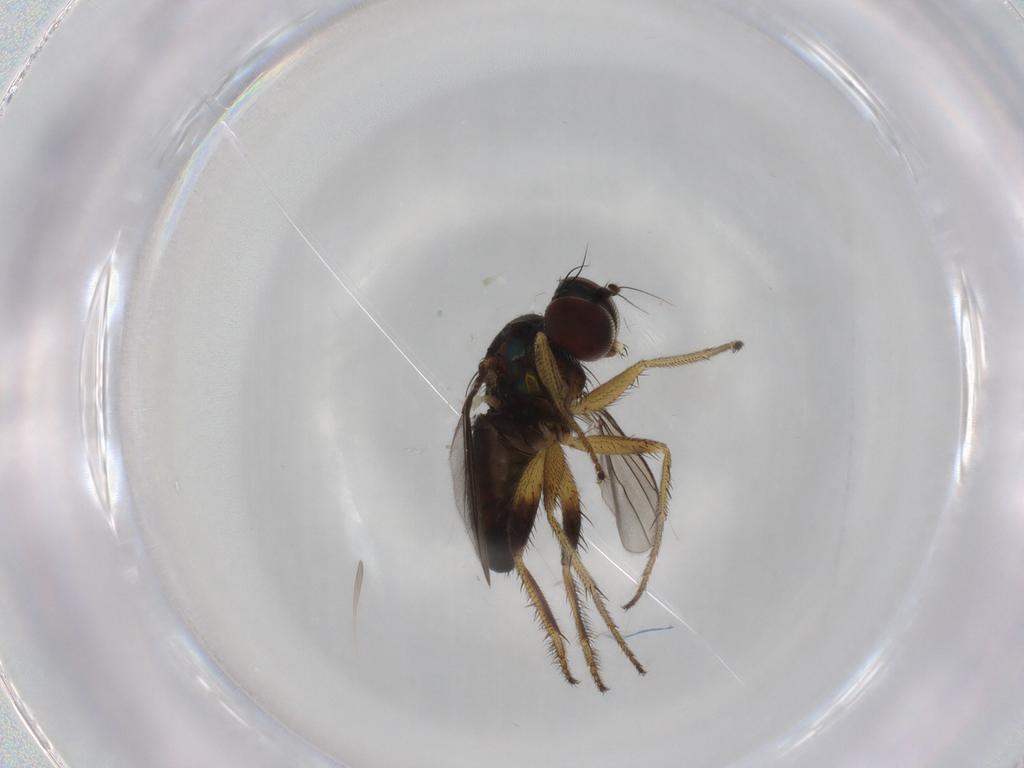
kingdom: Animalia
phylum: Arthropoda
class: Insecta
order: Diptera
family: Dolichopodidae
